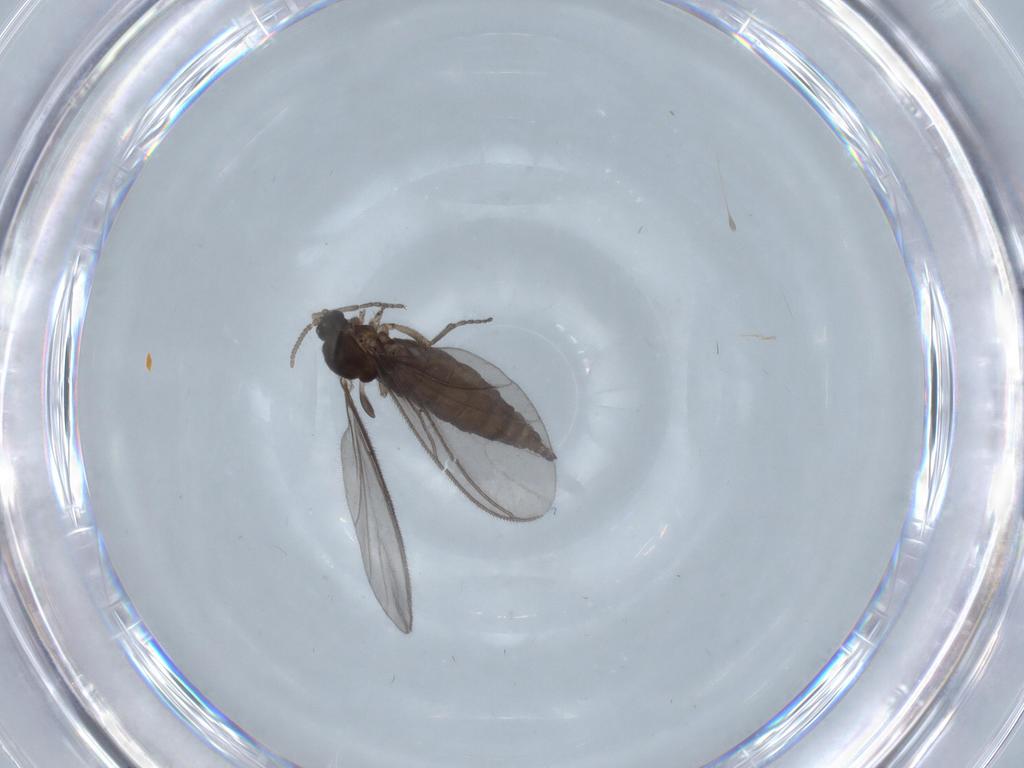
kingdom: Animalia
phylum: Arthropoda
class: Insecta
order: Diptera
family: Sciaridae
